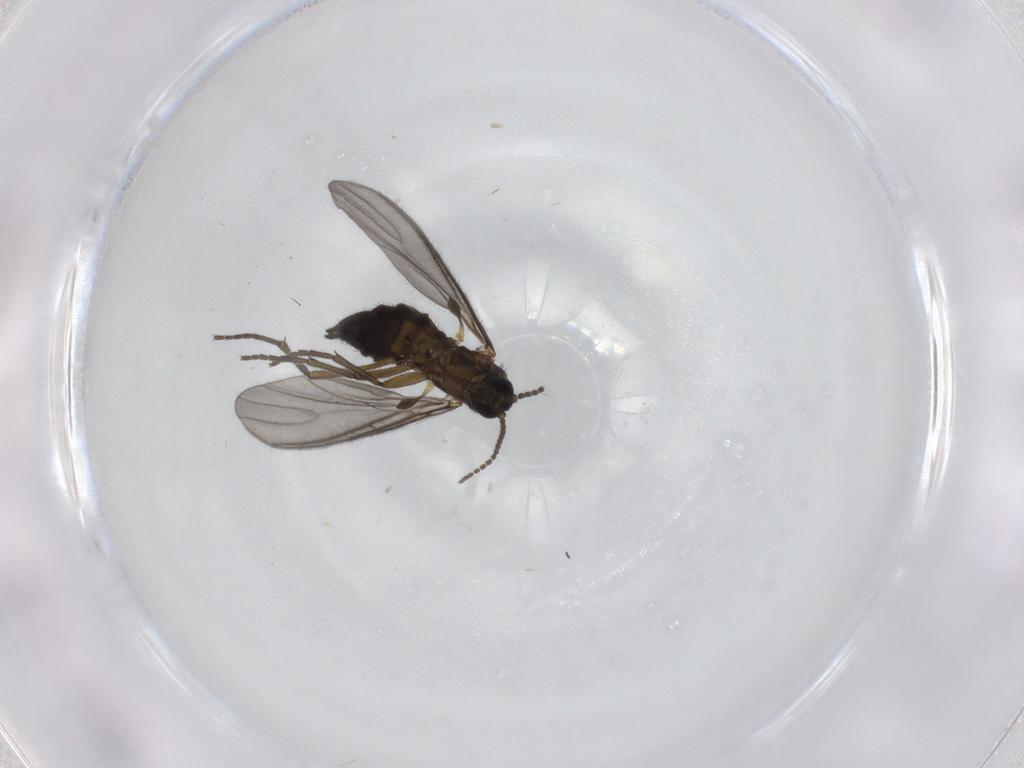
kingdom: Animalia
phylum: Arthropoda
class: Insecta
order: Diptera
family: Sciaridae
